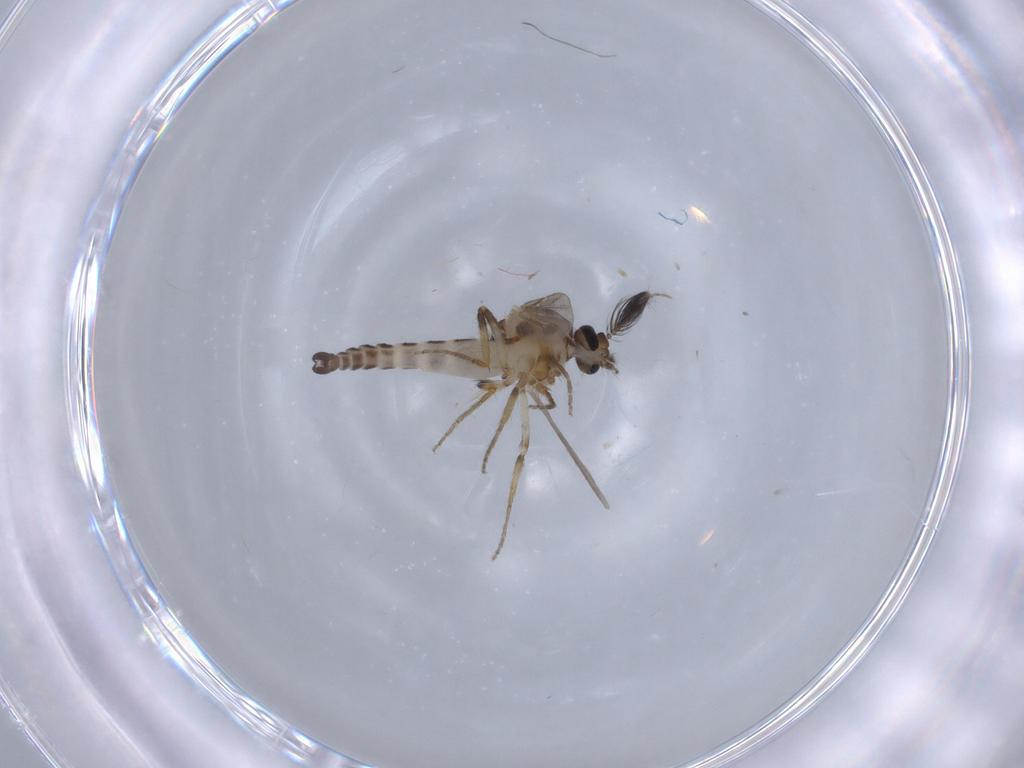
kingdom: Animalia
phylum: Arthropoda
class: Insecta
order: Diptera
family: Ceratopogonidae
